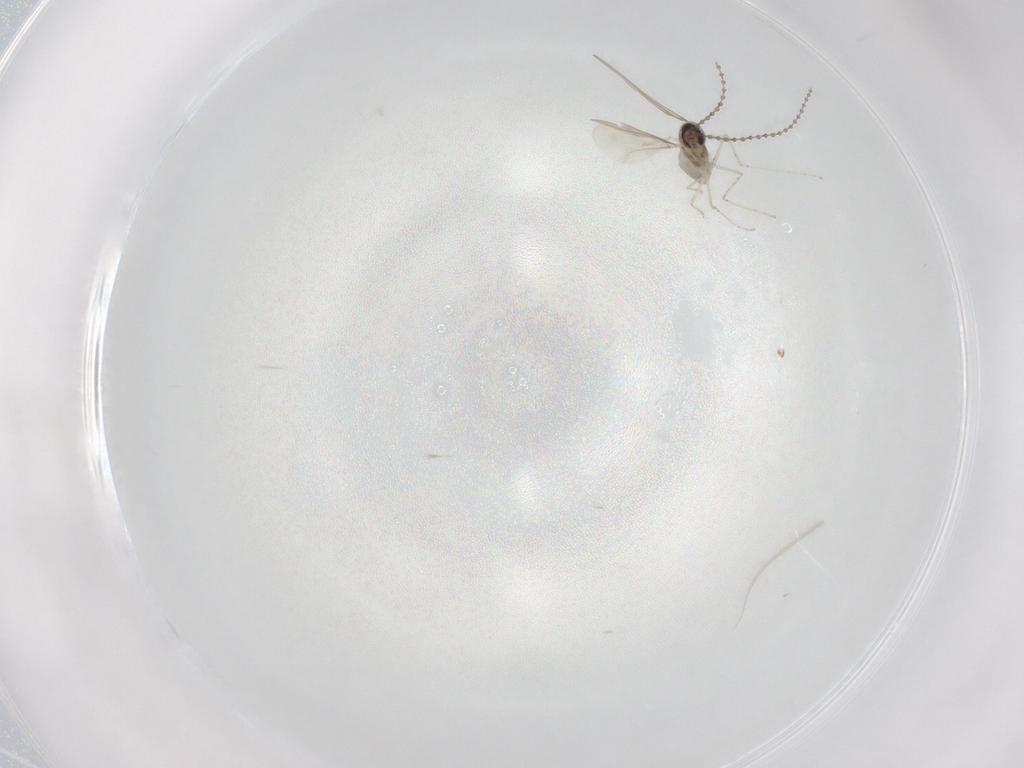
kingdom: Animalia
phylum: Arthropoda
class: Insecta
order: Diptera
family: Cecidomyiidae
